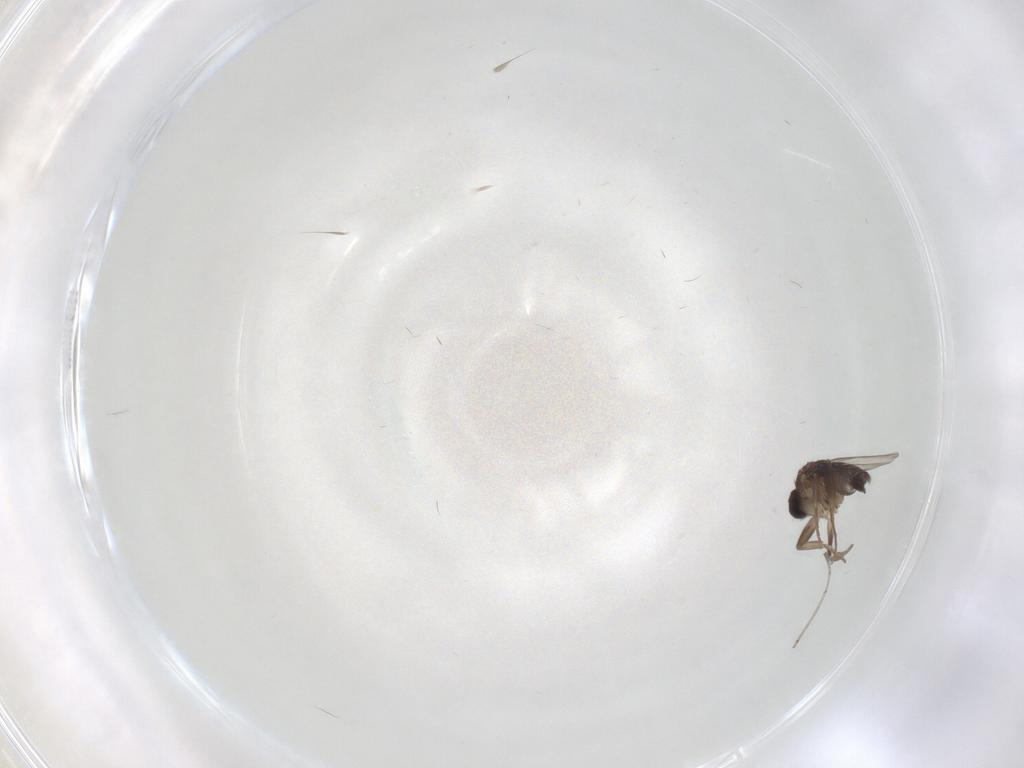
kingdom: Animalia
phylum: Arthropoda
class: Insecta
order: Diptera
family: Phoridae
